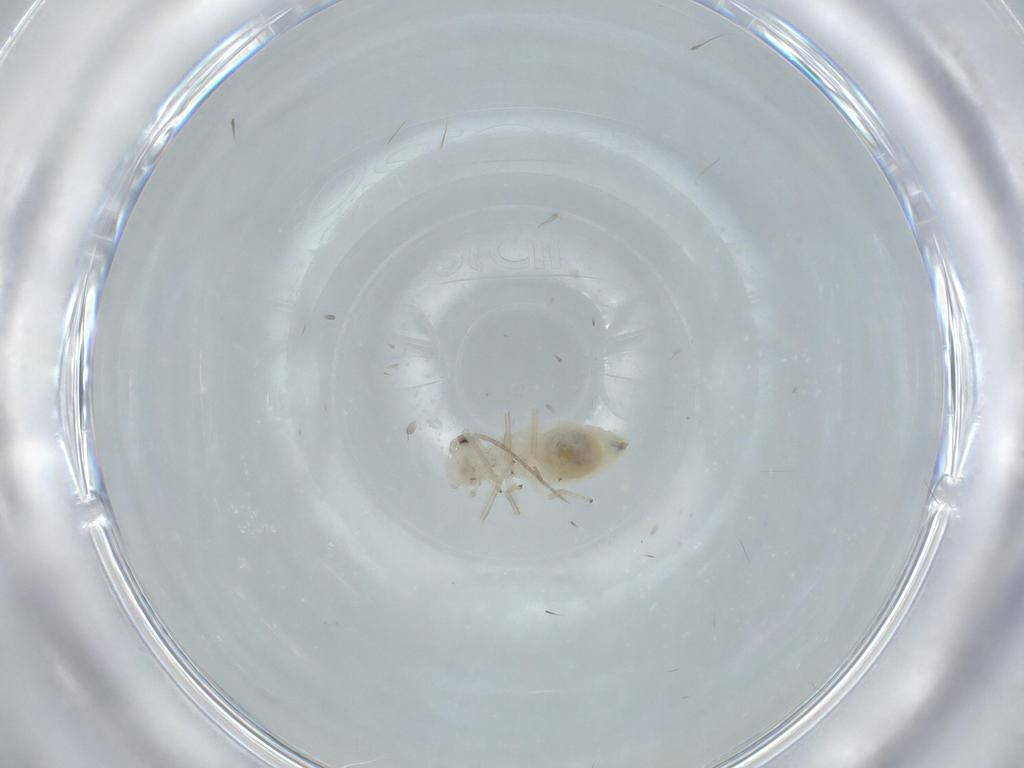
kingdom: Animalia
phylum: Arthropoda
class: Insecta
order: Psocodea
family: Caeciliusidae
